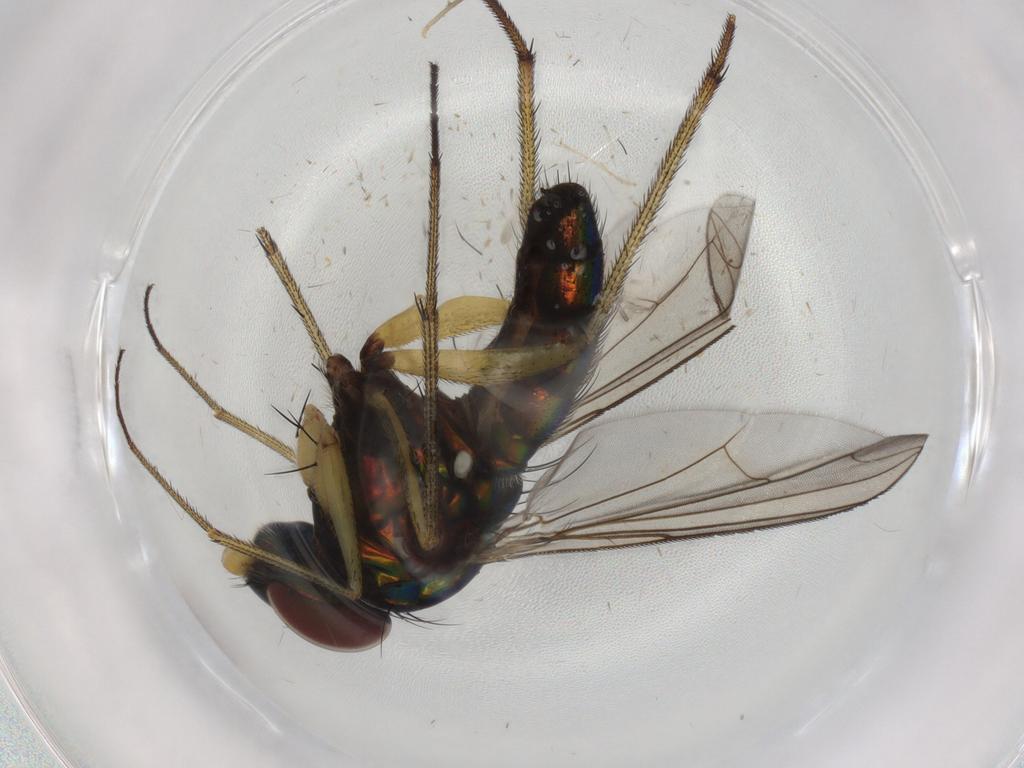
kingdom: Animalia
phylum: Arthropoda
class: Insecta
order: Diptera
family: Dolichopodidae
